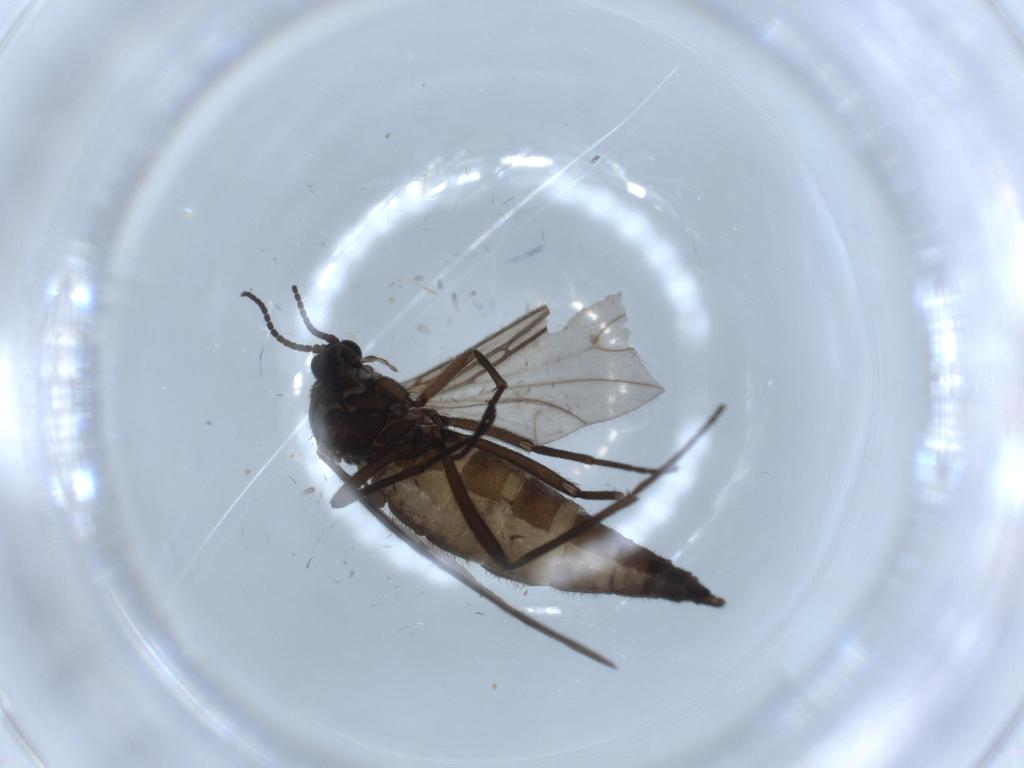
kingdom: Animalia
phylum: Arthropoda
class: Insecta
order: Diptera
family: Sciaridae
